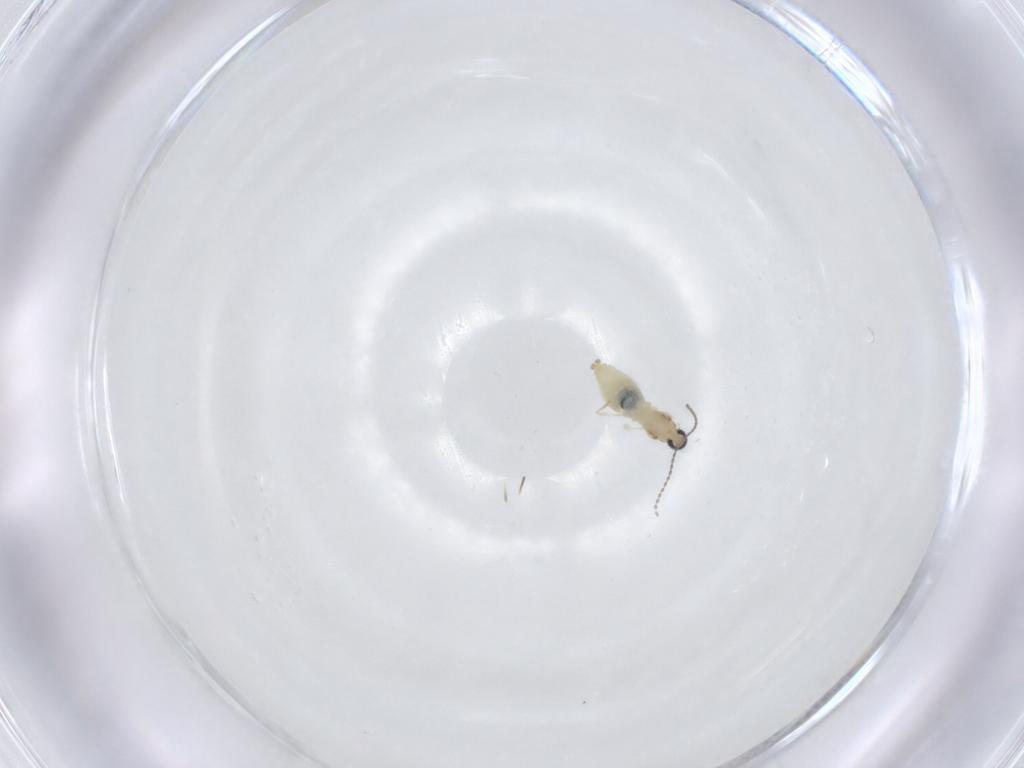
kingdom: Animalia
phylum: Arthropoda
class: Insecta
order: Diptera
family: Cecidomyiidae
